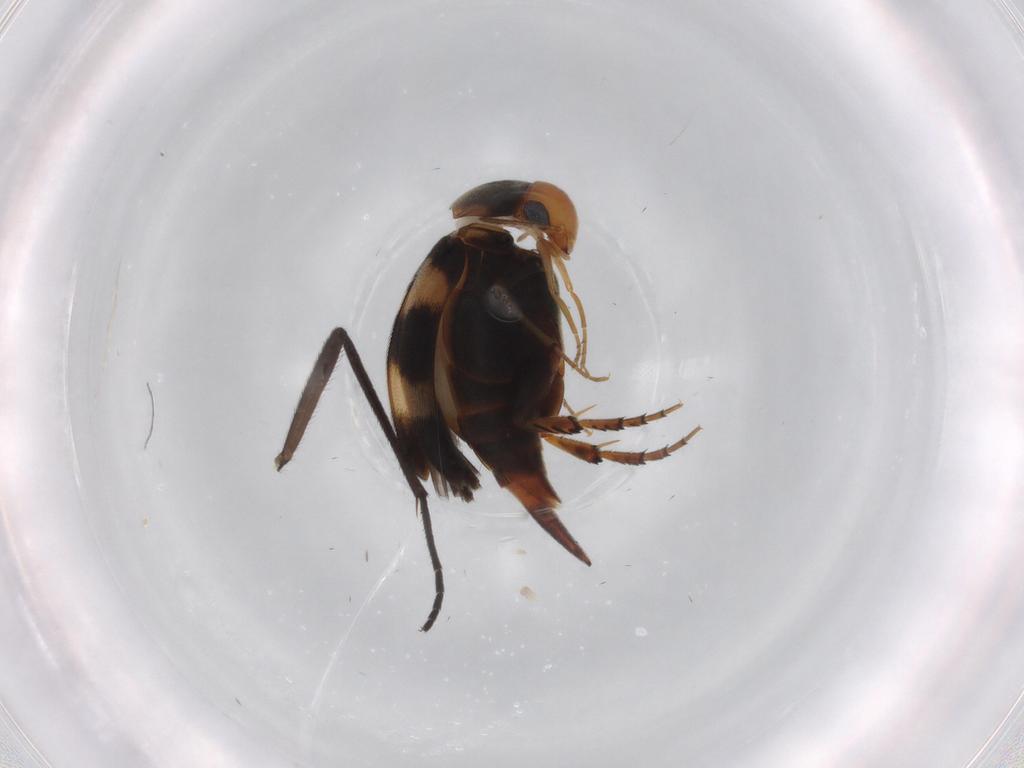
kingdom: Animalia
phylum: Arthropoda
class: Insecta
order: Coleoptera
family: Mordellidae
